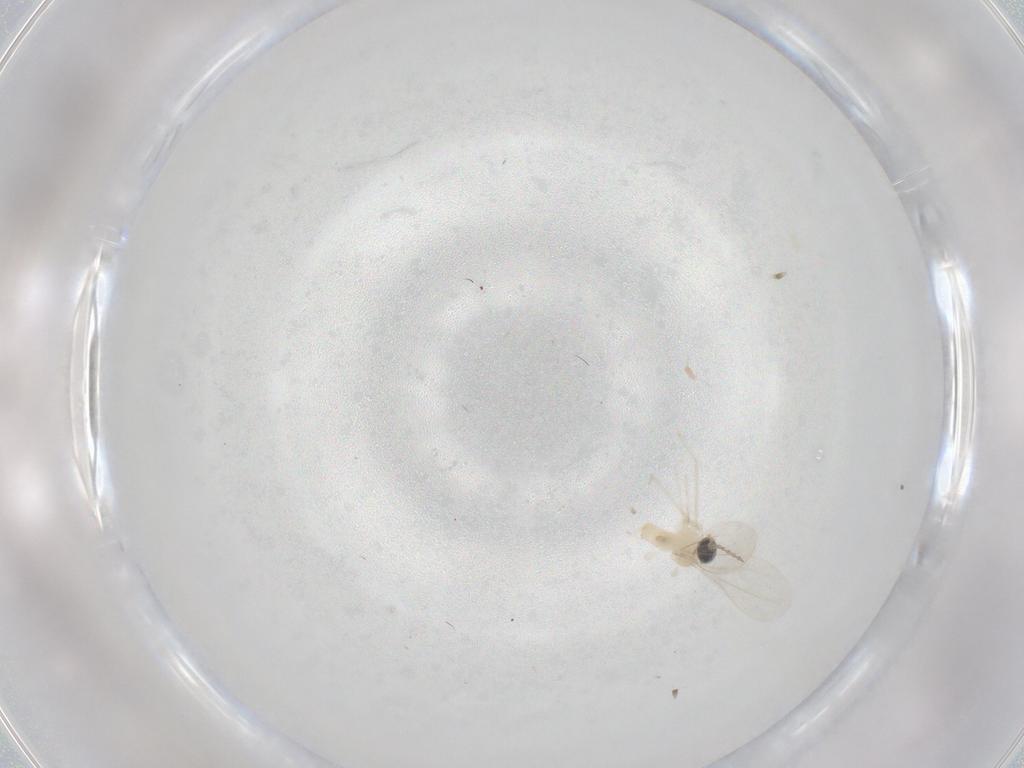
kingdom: Animalia
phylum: Arthropoda
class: Insecta
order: Diptera
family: Cecidomyiidae
